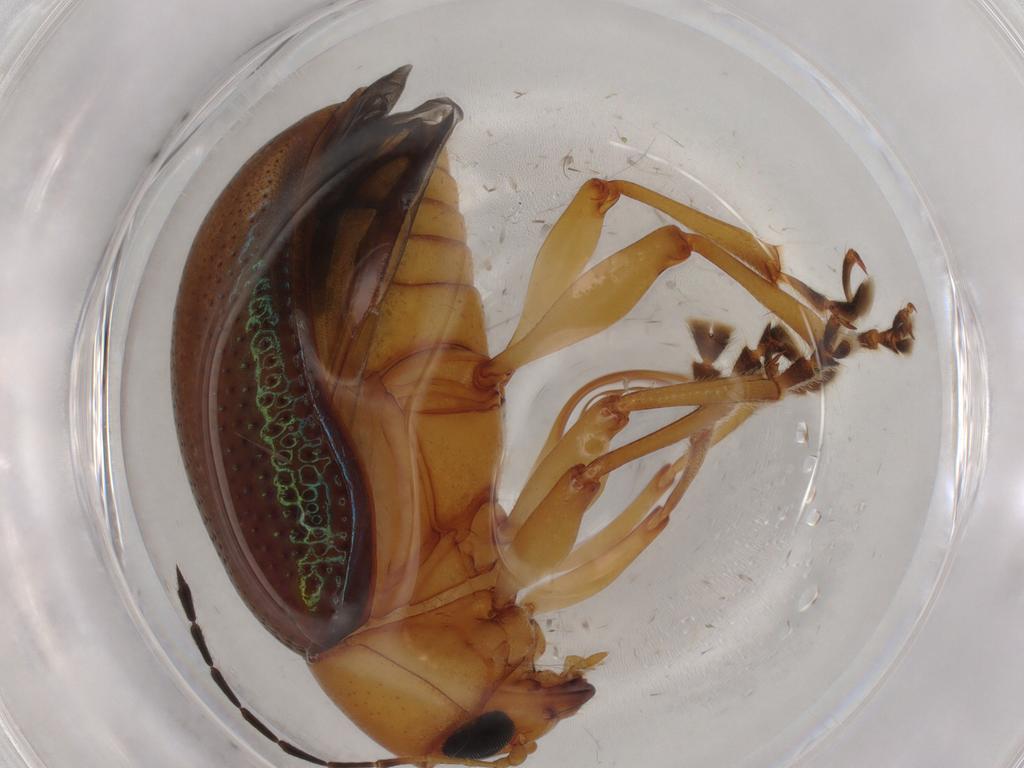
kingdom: Animalia
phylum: Arthropoda
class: Insecta
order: Coleoptera
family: Chrysomelidae
